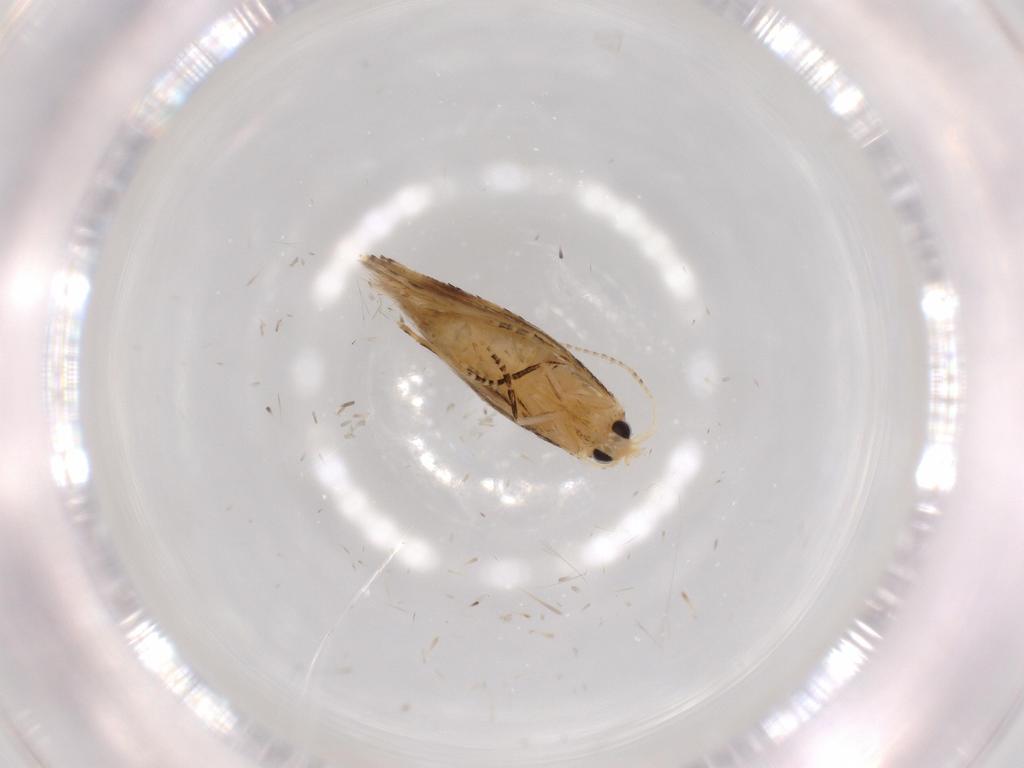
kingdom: Animalia
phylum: Arthropoda
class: Insecta
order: Lepidoptera
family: Bucculatricidae
